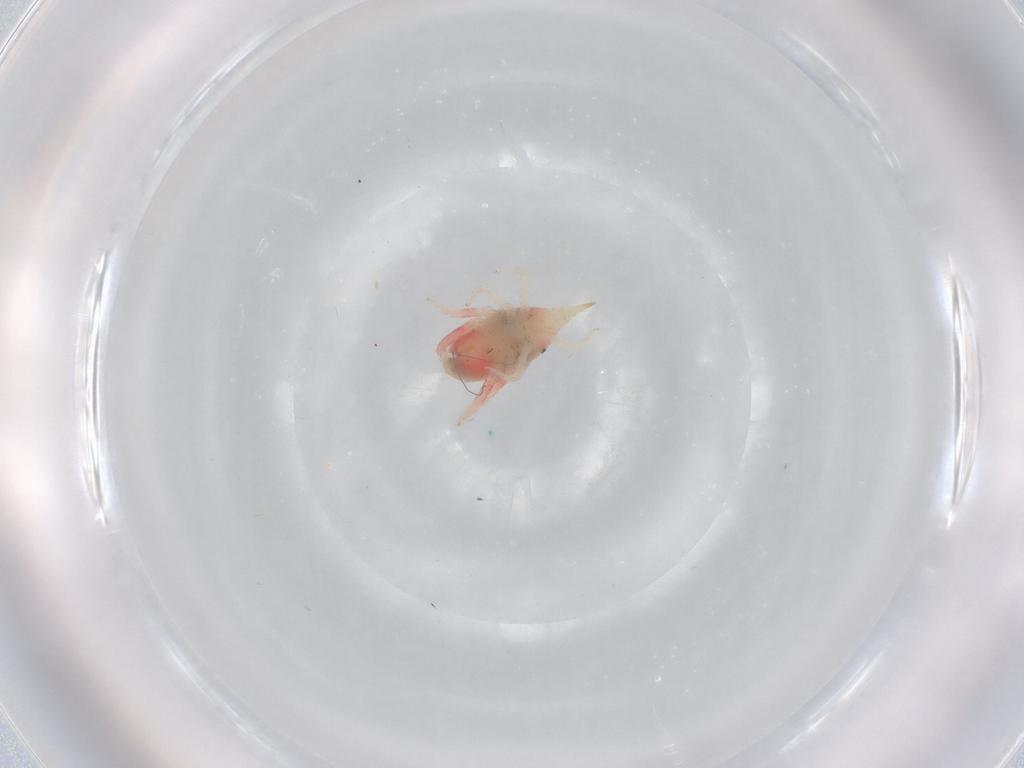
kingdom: Animalia
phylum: Arthropoda
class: Arachnida
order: Trombidiformes
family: Bdellidae
